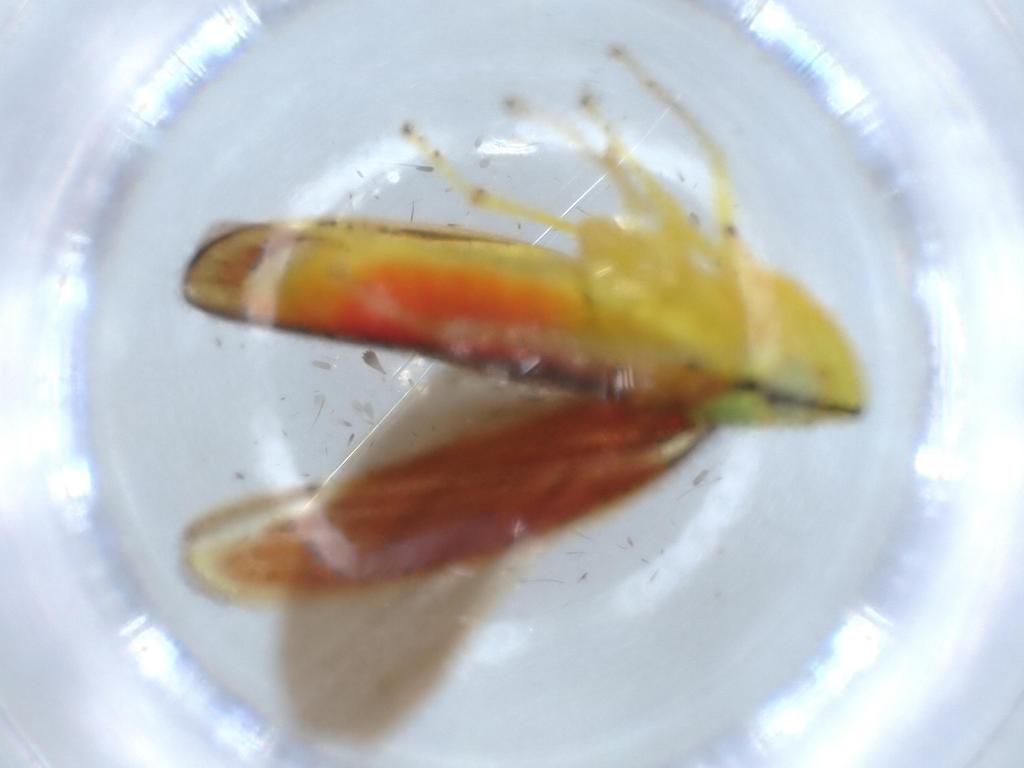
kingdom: Animalia
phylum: Arthropoda
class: Insecta
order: Hemiptera
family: Cicadellidae
